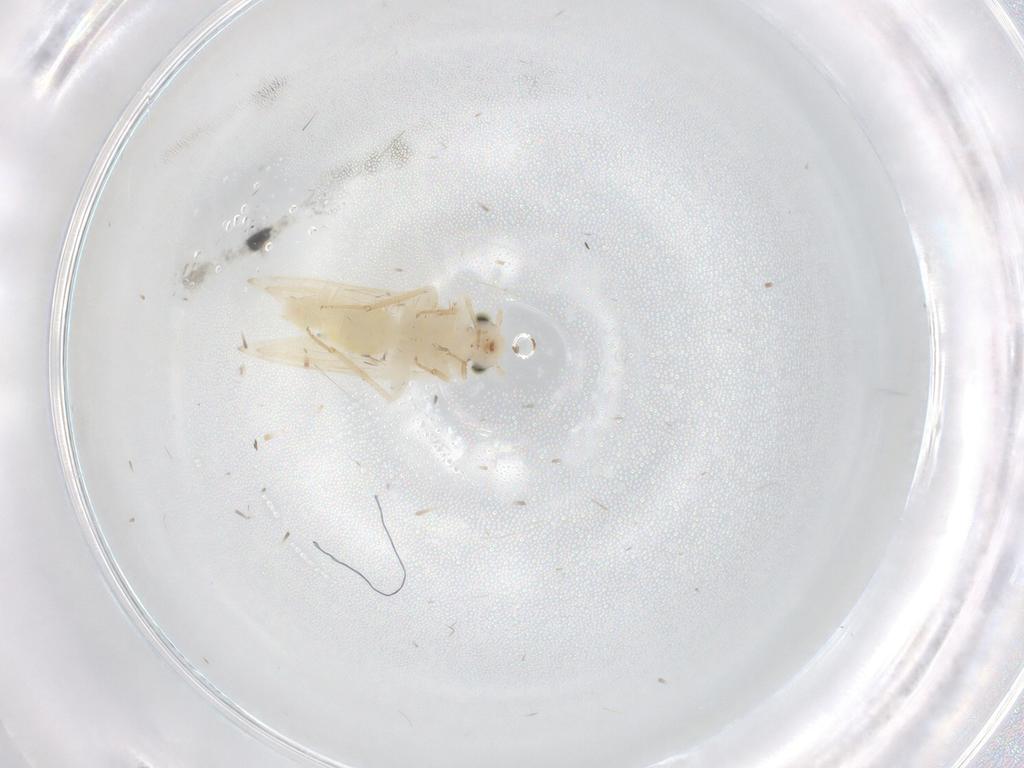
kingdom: Animalia
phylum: Arthropoda
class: Insecta
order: Psocodea
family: Lepidopsocidae
